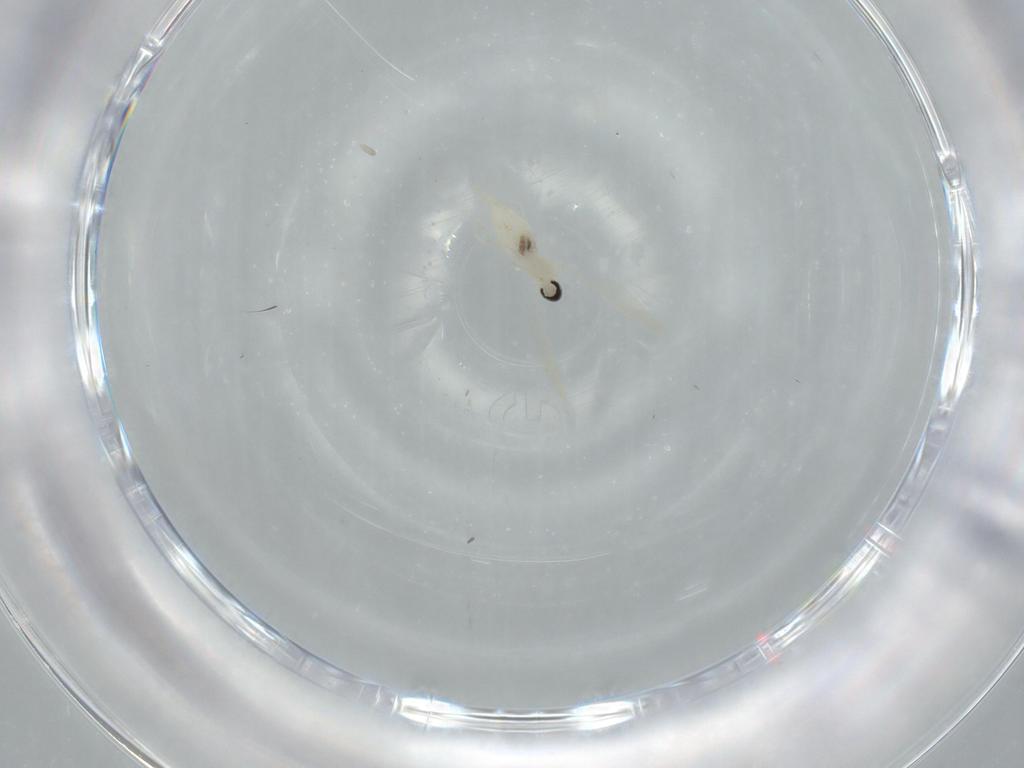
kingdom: Animalia
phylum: Arthropoda
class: Insecta
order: Diptera
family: Cecidomyiidae
